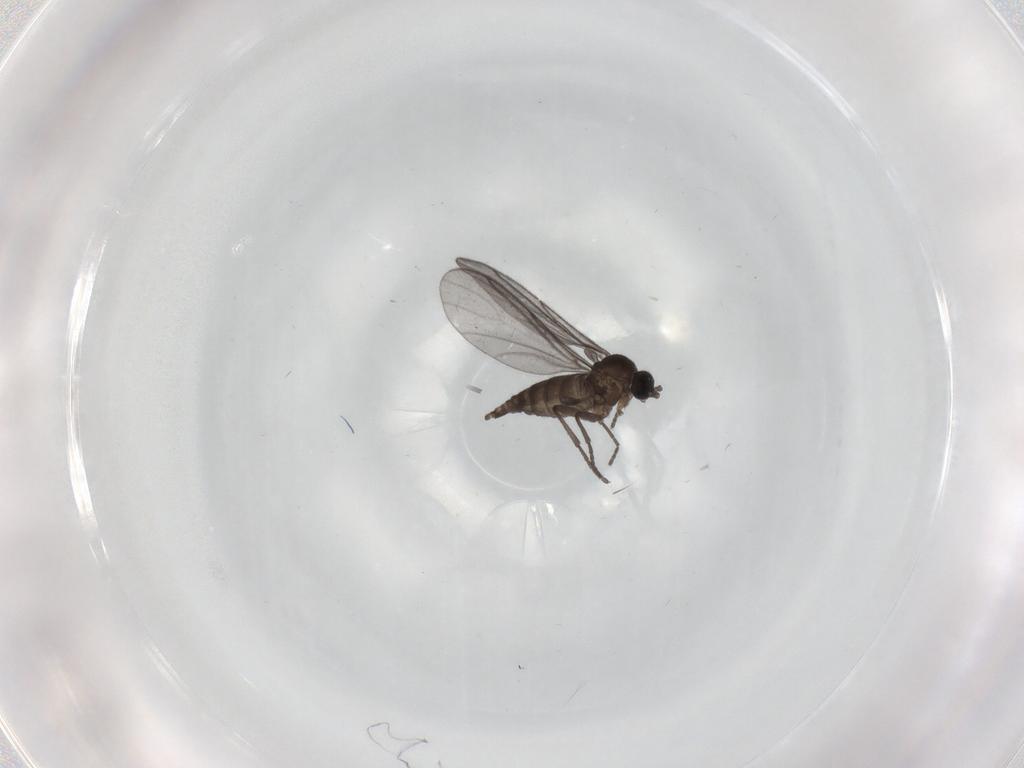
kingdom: Animalia
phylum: Arthropoda
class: Insecta
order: Diptera
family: Sciaridae
